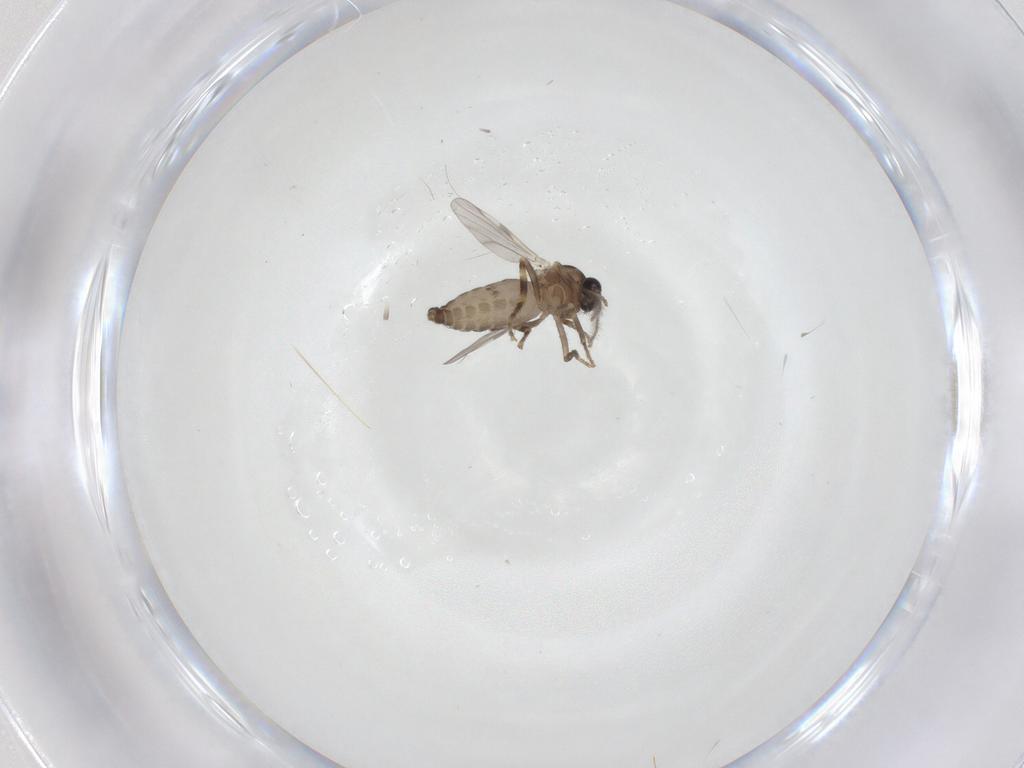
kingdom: Animalia
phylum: Arthropoda
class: Insecta
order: Diptera
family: Ceratopogonidae
